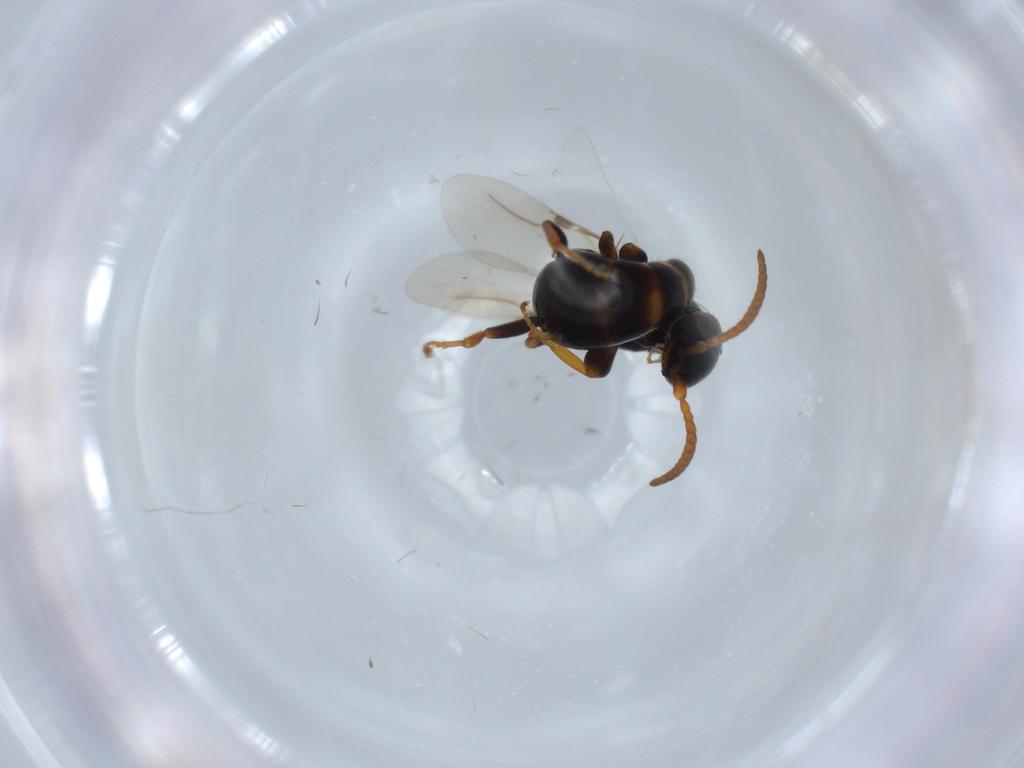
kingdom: Animalia
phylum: Arthropoda
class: Insecta
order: Hymenoptera
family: Bethylidae
